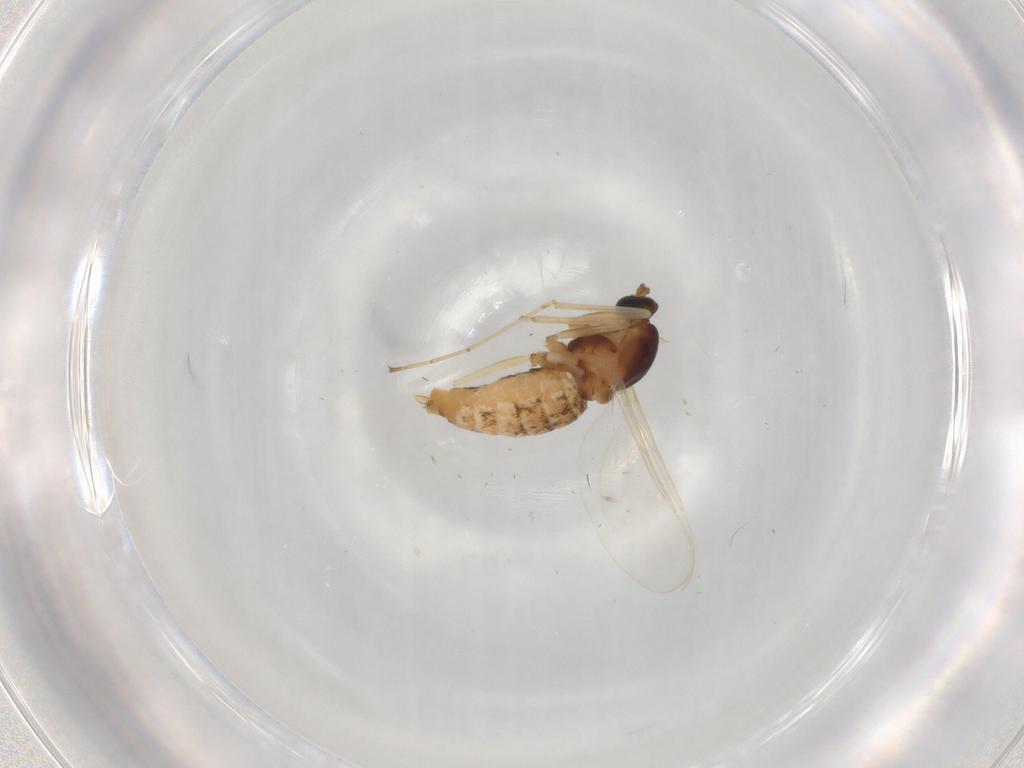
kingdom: Animalia
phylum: Arthropoda
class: Insecta
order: Diptera
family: Cecidomyiidae
